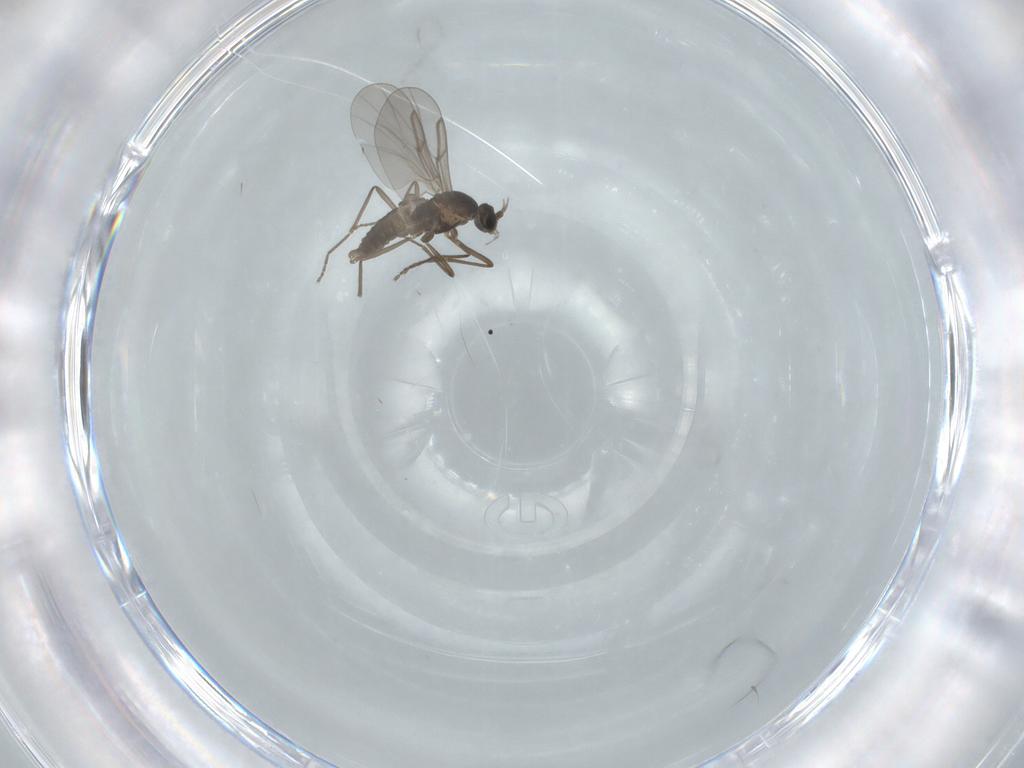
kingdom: Animalia
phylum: Arthropoda
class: Insecta
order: Diptera
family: Cecidomyiidae
